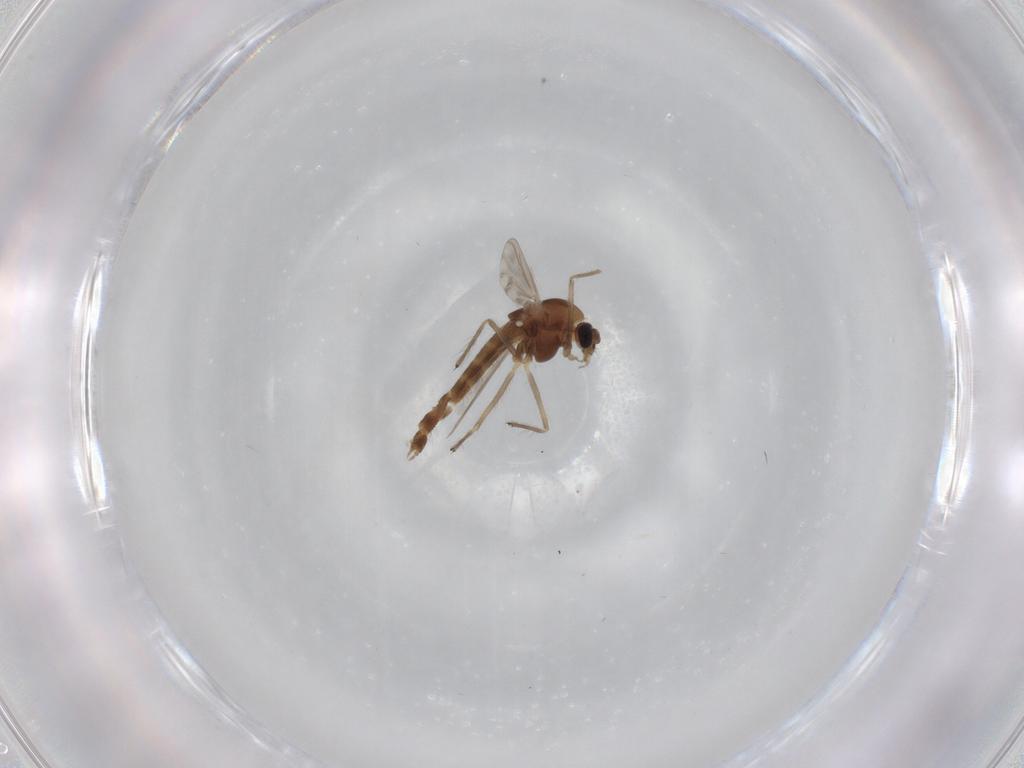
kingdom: Animalia
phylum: Arthropoda
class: Insecta
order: Diptera
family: Chironomidae
